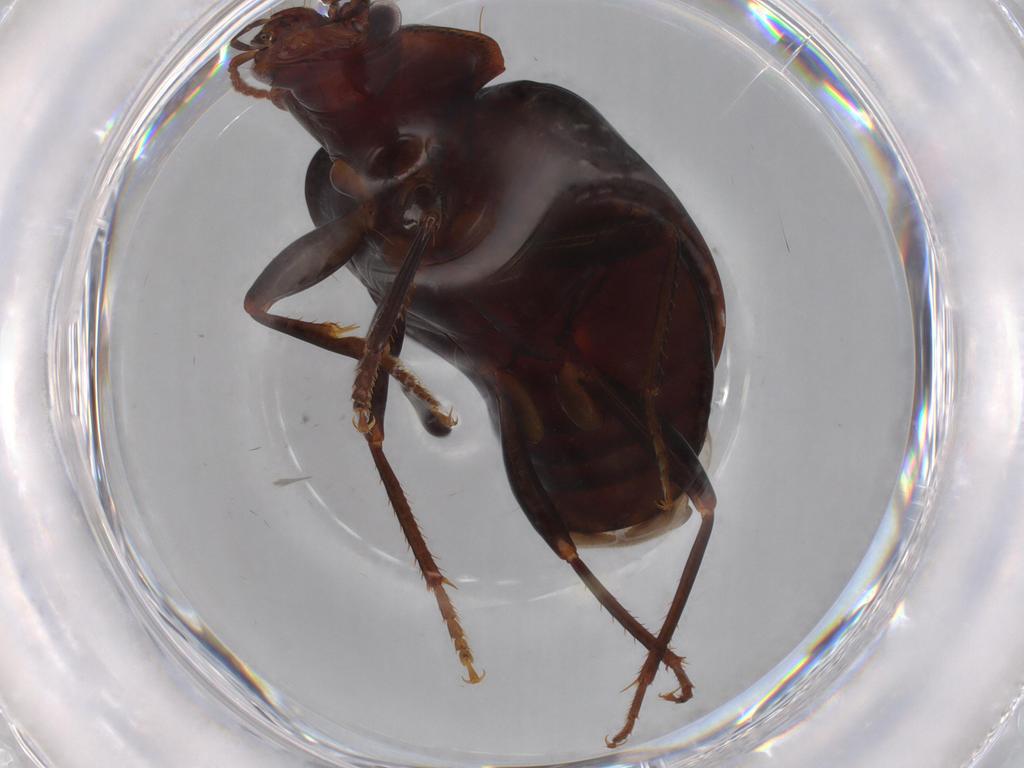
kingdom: Animalia
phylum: Arthropoda
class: Insecta
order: Coleoptera
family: Carabidae
